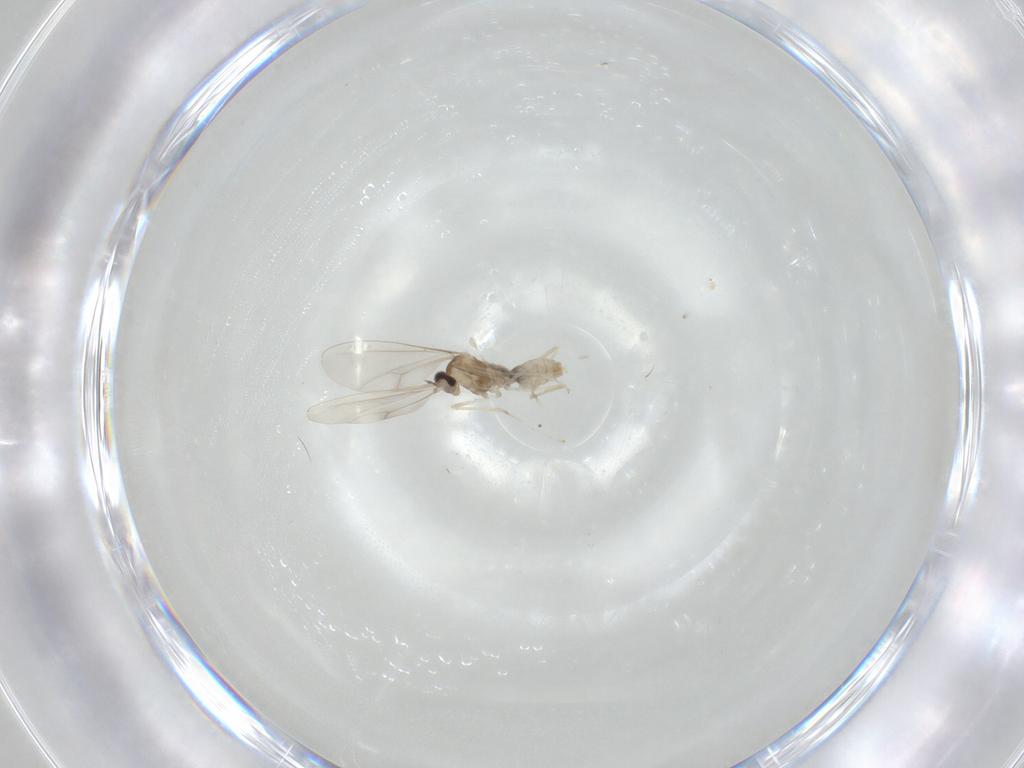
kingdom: Animalia
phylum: Arthropoda
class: Insecta
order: Diptera
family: Cecidomyiidae
